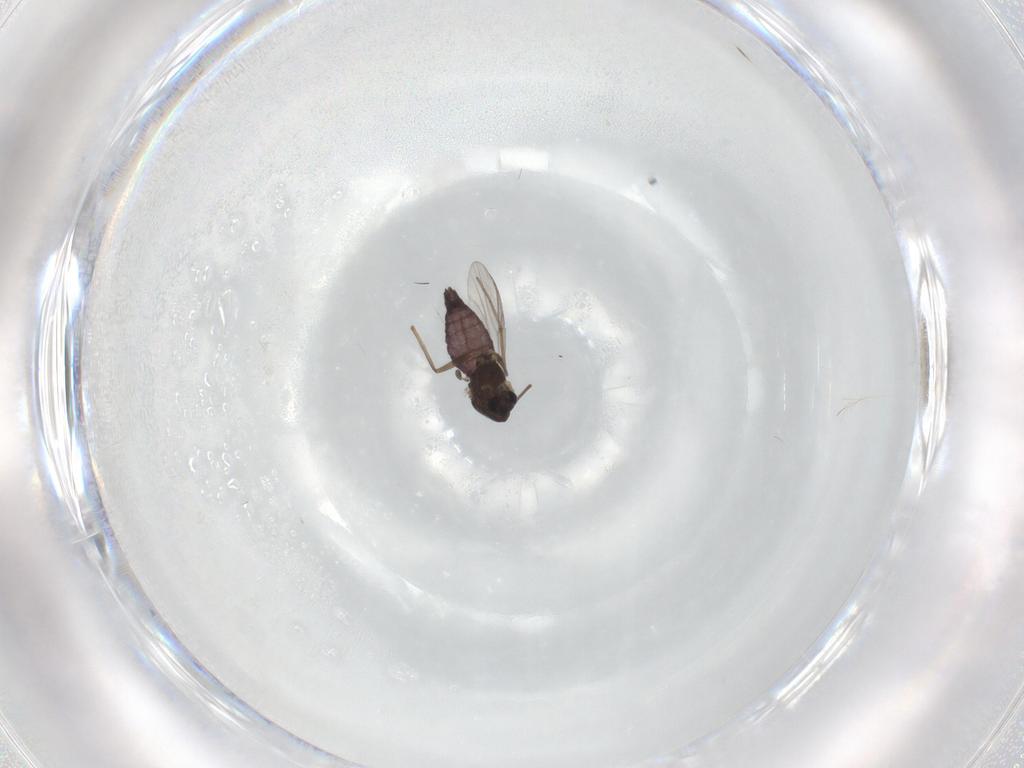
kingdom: Animalia
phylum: Arthropoda
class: Insecta
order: Diptera
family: Chironomidae
